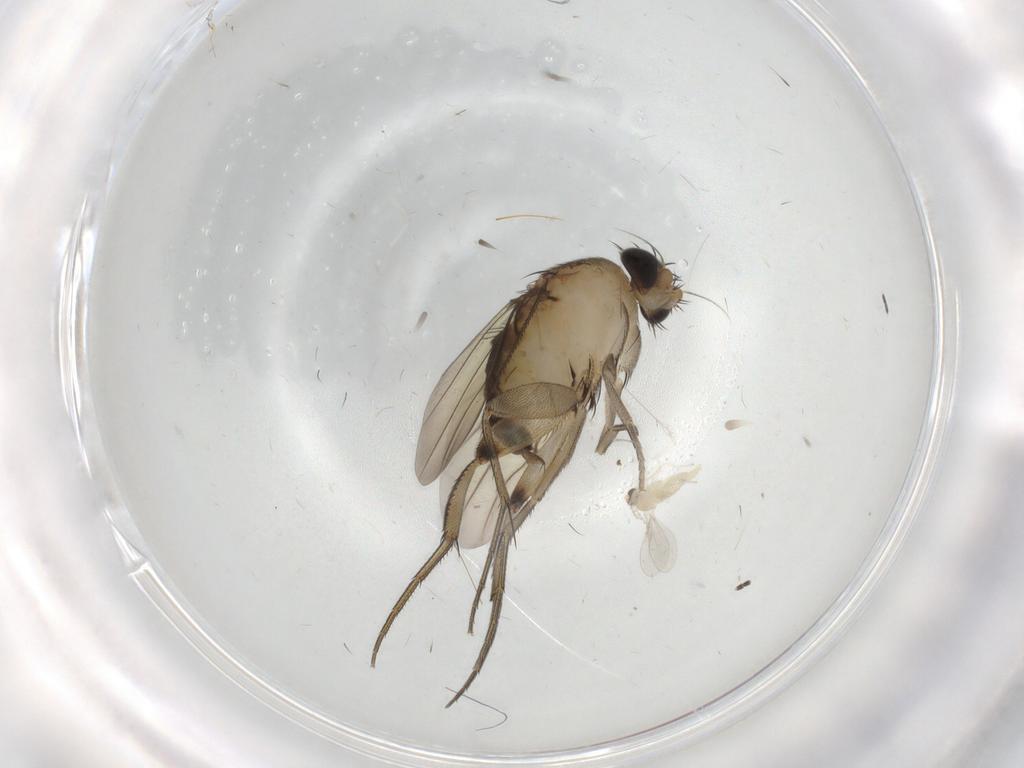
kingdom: Animalia
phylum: Arthropoda
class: Insecta
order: Diptera
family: Phoridae
